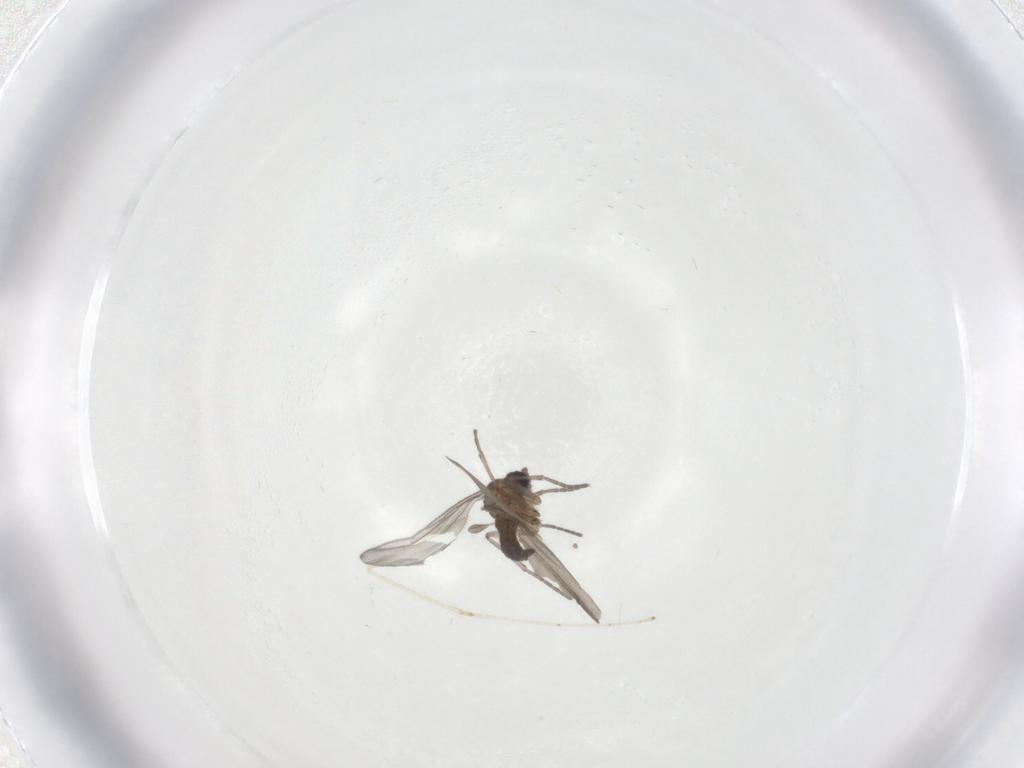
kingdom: Animalia
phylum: Arthropoda
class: Insecta
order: Diptera
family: Sciaridae
